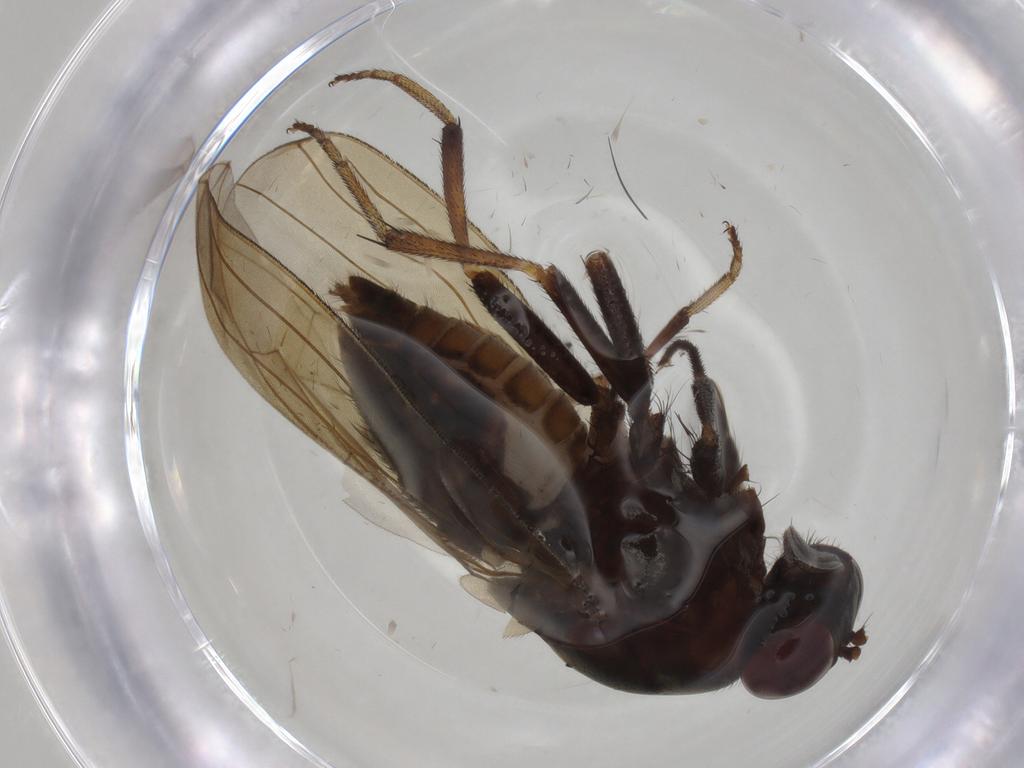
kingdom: Animalia
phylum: Arthropoda
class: Insecta
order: Diptera
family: Sciaridae
